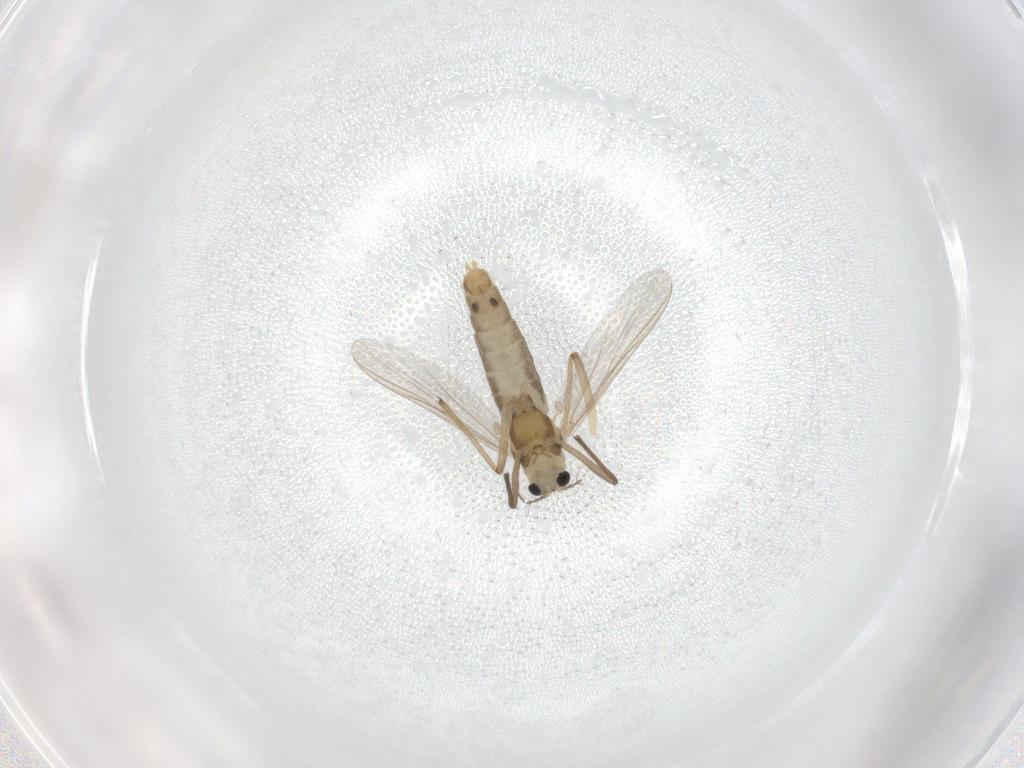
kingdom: Animalia
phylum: Arthropoda
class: Insecta
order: Diptera
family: Chironomidae
